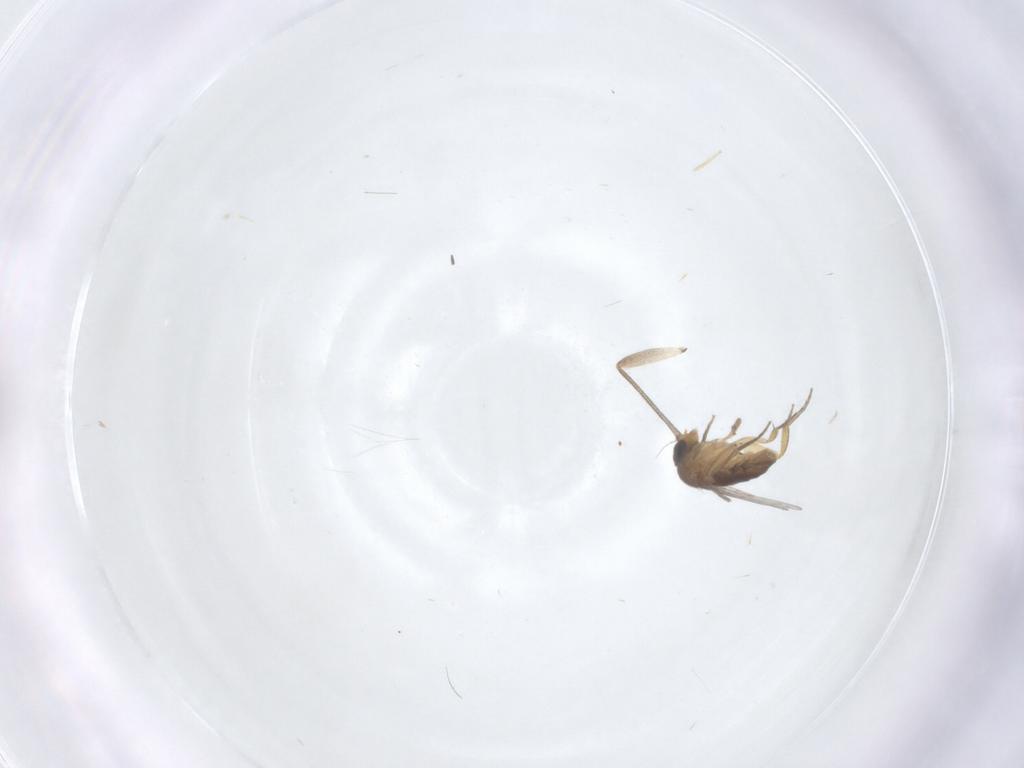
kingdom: Animalia
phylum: Arthropoda
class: Insecta
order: Diptera
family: Sciaridae
